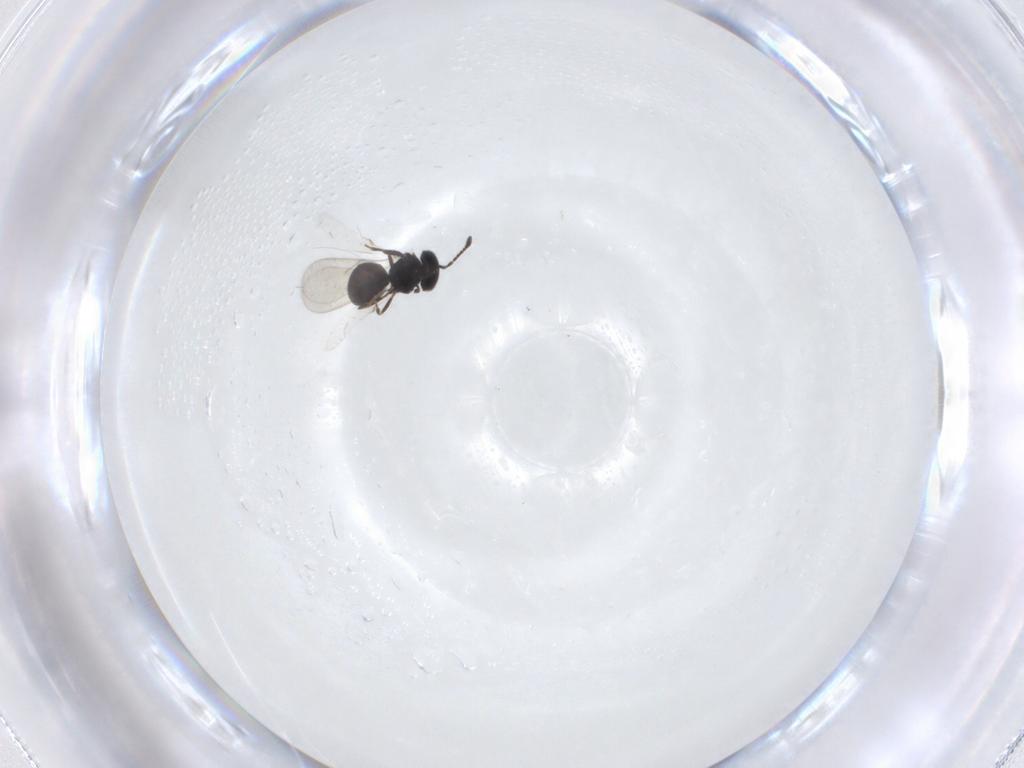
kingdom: Animalia
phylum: Arthropoda
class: Insecta
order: Hymenoptera
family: Scelionidae
